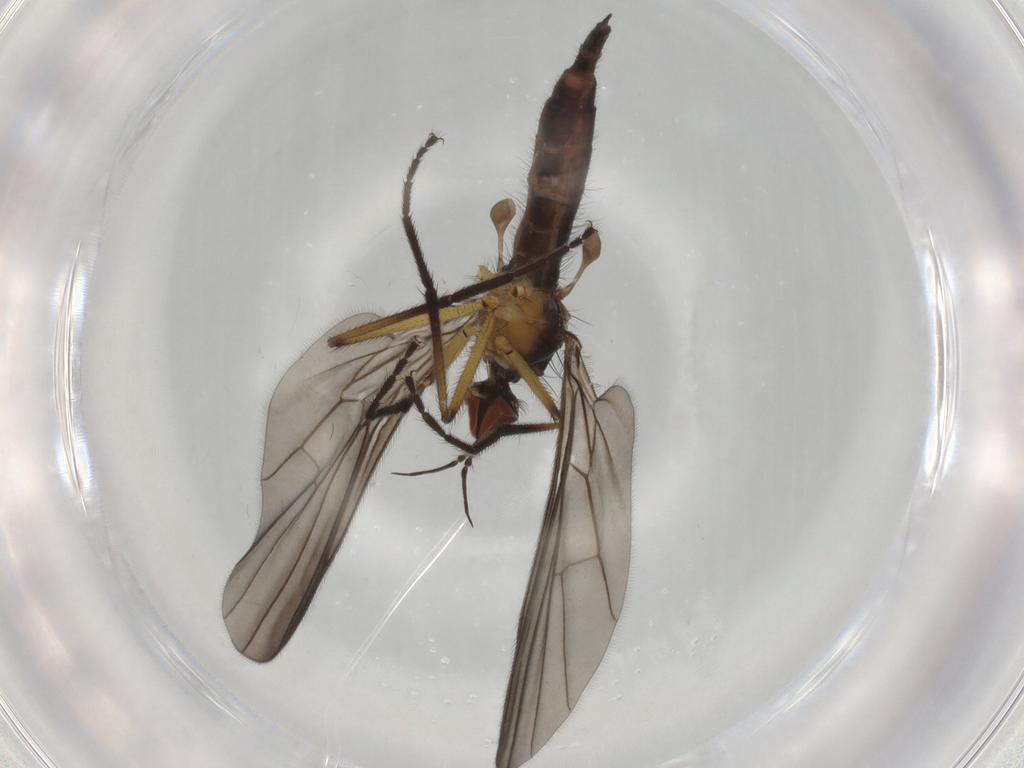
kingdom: Animalia
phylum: Arthropoda
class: Insecta
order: Diptera
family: Empididae
